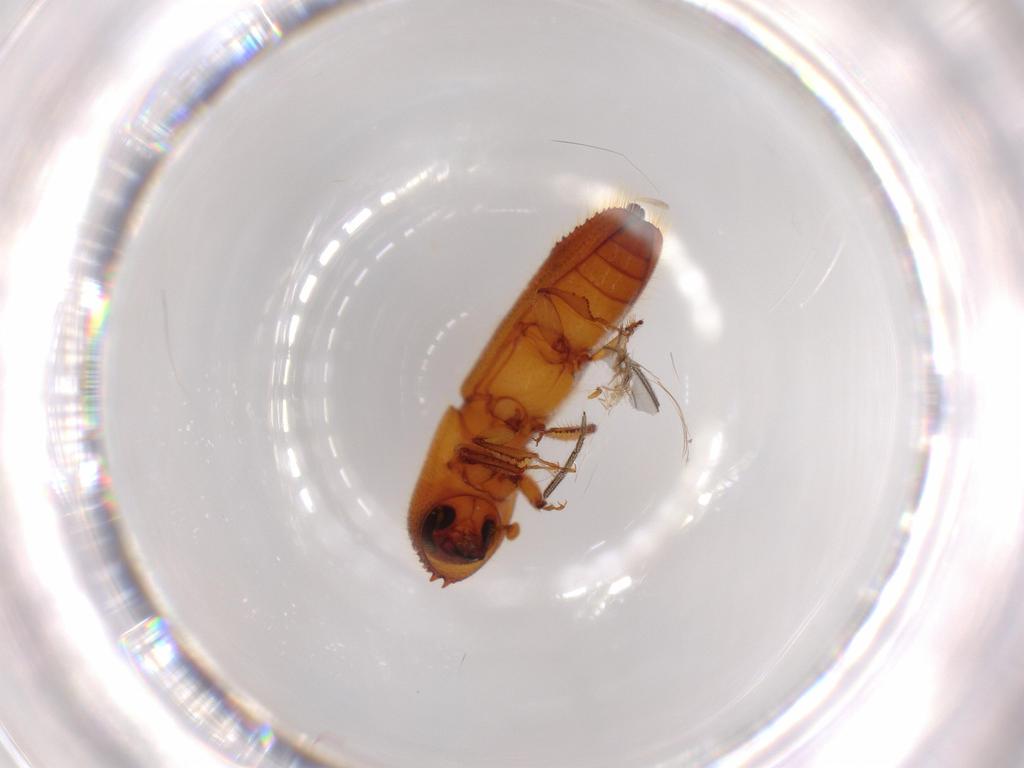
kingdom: Animalia
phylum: Arthropoda
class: Insecta
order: Coleoptera
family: Curculionidae
